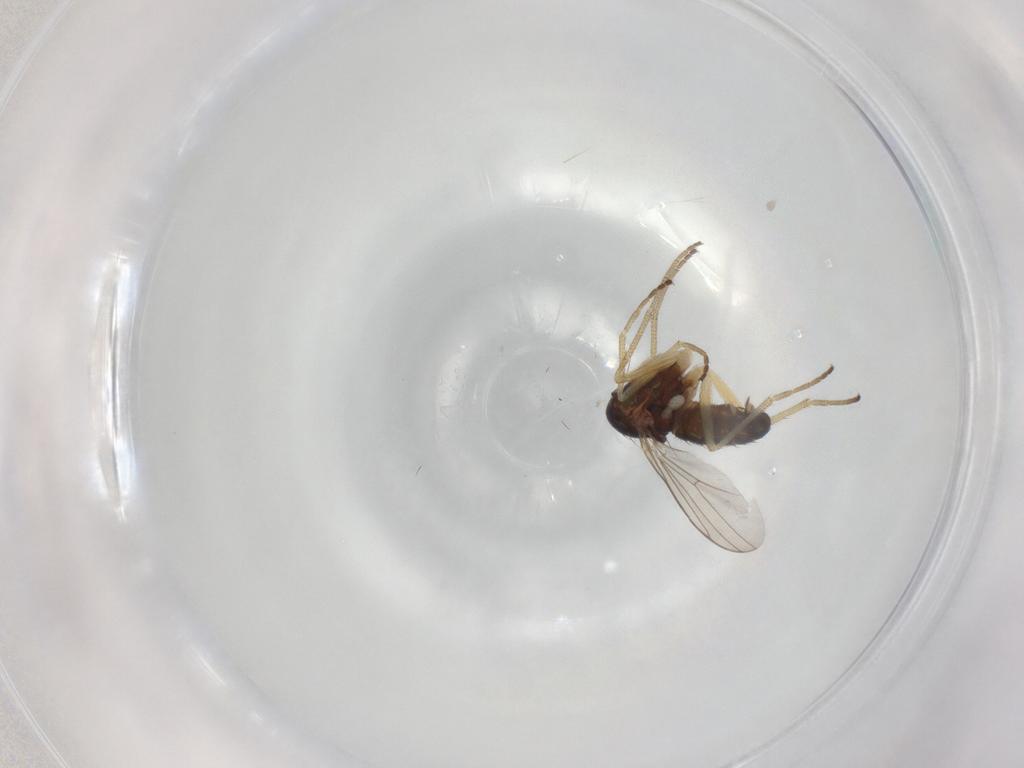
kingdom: Animalia
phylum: Arthropoda
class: Insecta
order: Diptera
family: Dolichopodidae
